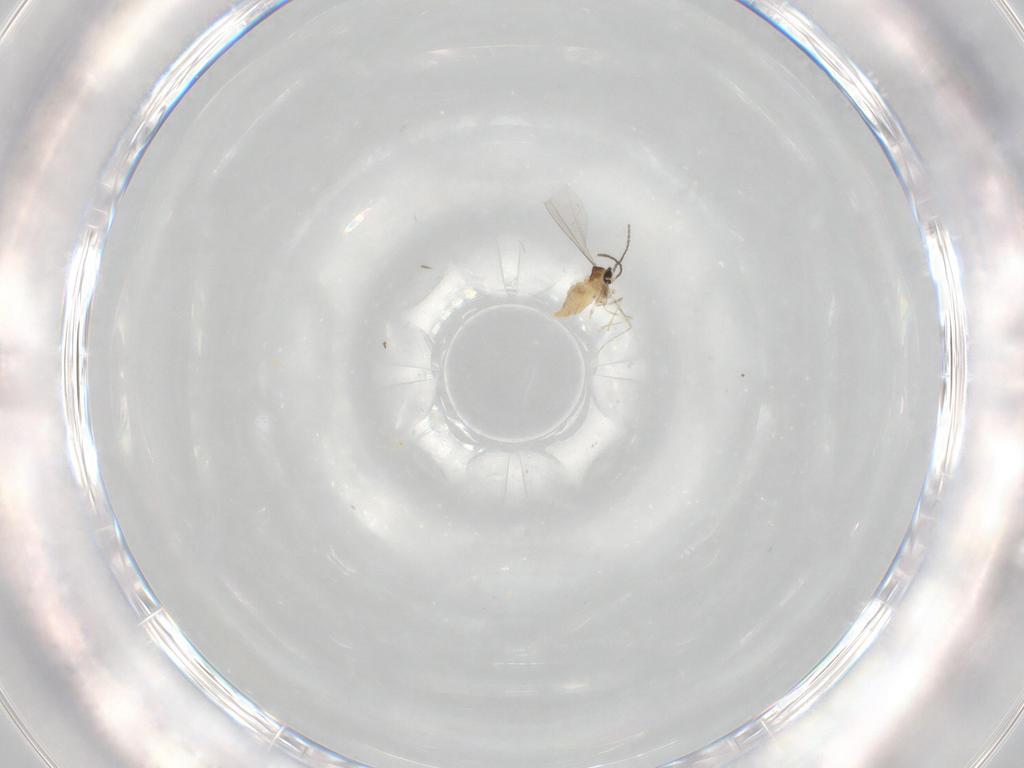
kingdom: Animalia
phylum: Arthropoda
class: Insecta
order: Diptera
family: Cecidomyiidae
